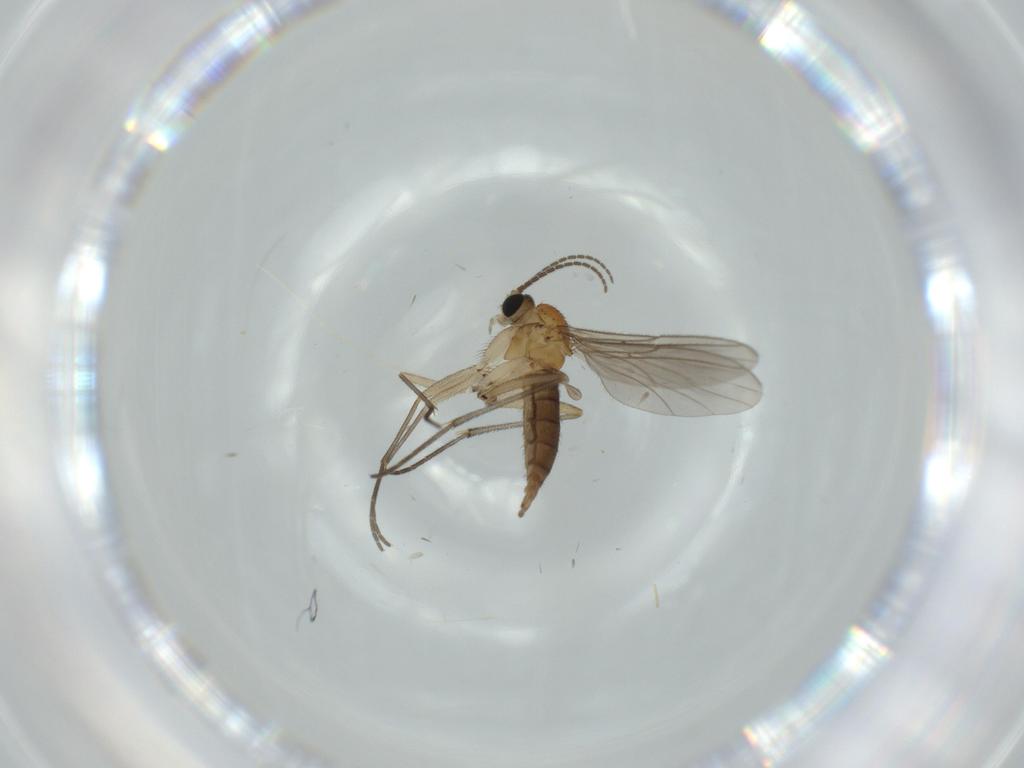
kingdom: Animalia
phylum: Arthropoda
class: Insecta
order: Diptera
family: Sciaridae
